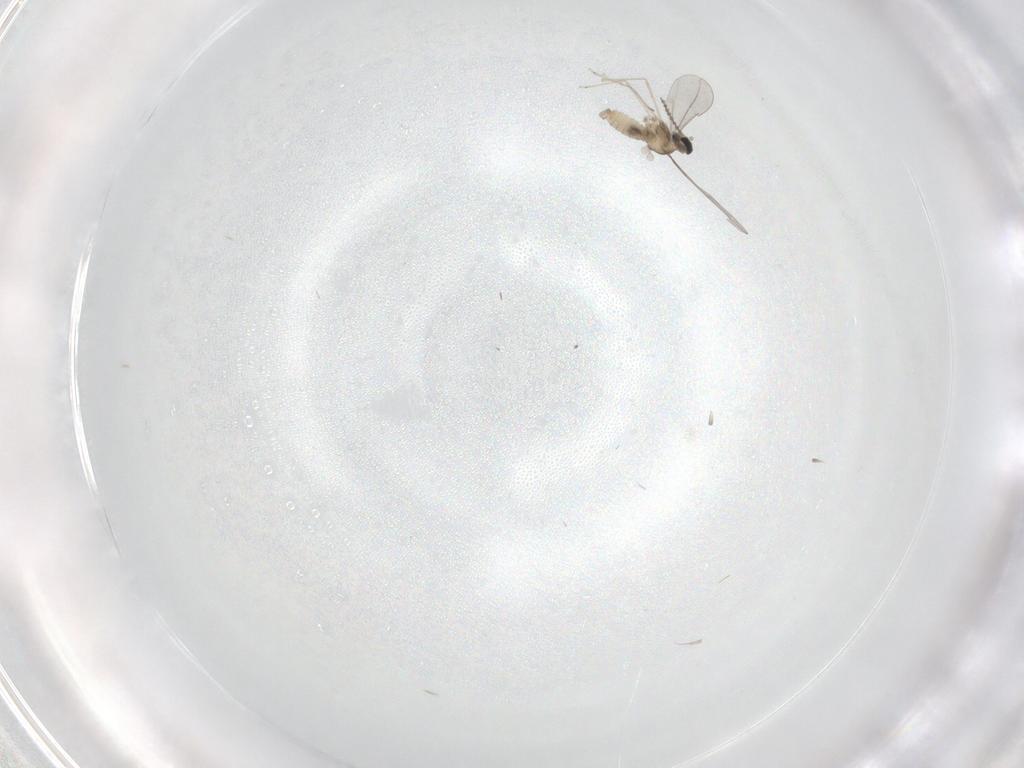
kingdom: Animalia
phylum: Arthropoda
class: Insecta
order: Diptera
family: Cecidomyiidae
